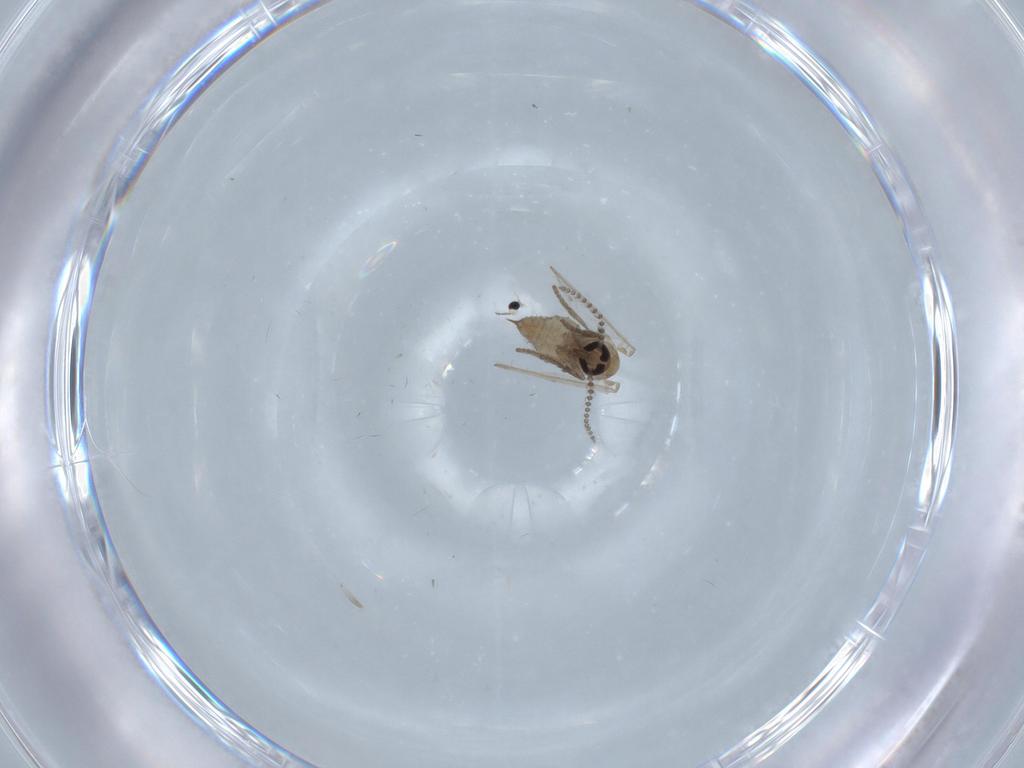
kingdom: Animalia
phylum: Arthropoda
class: Insecta
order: Diptera
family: Psychodidae
